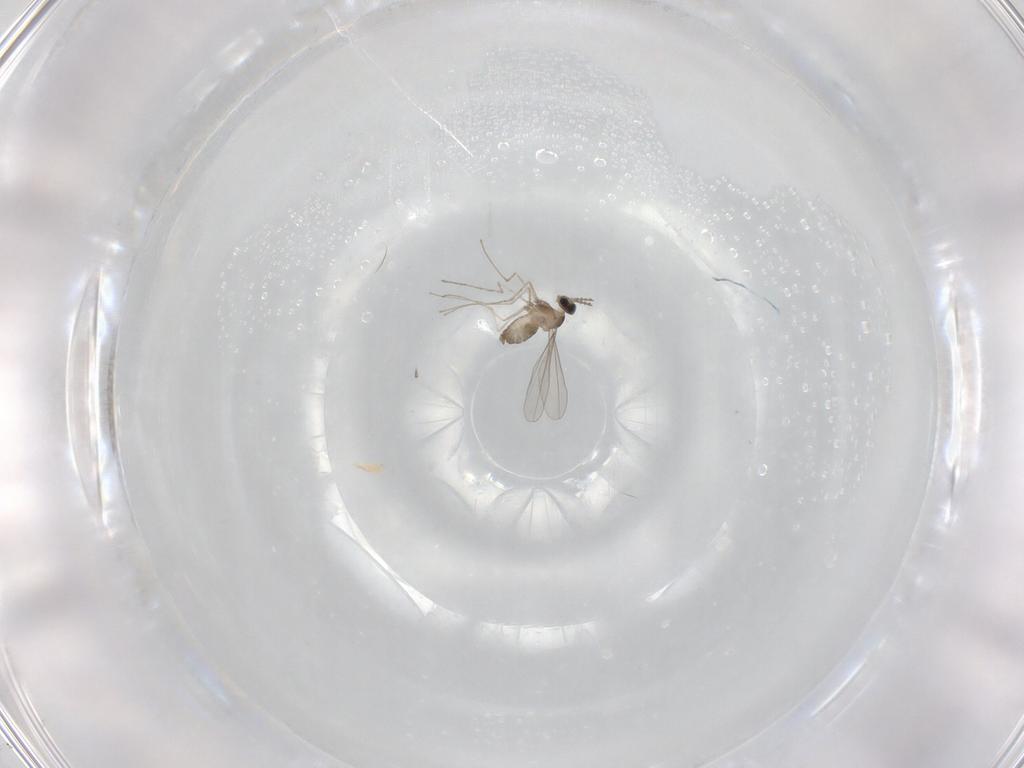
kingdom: Animalia
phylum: Arthropoda
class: Insecta
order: Diptera
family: Cecidomyiidae
